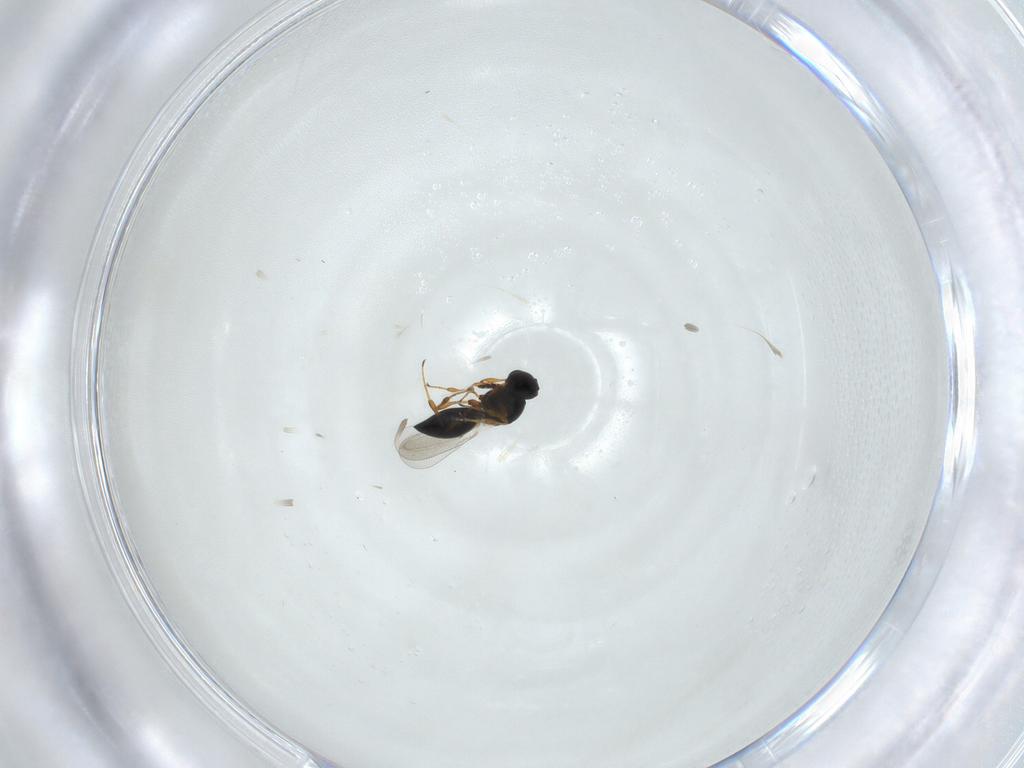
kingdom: Animalia
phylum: Arthropoda
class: Insecta
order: Hymenoptera
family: Platygastridae
